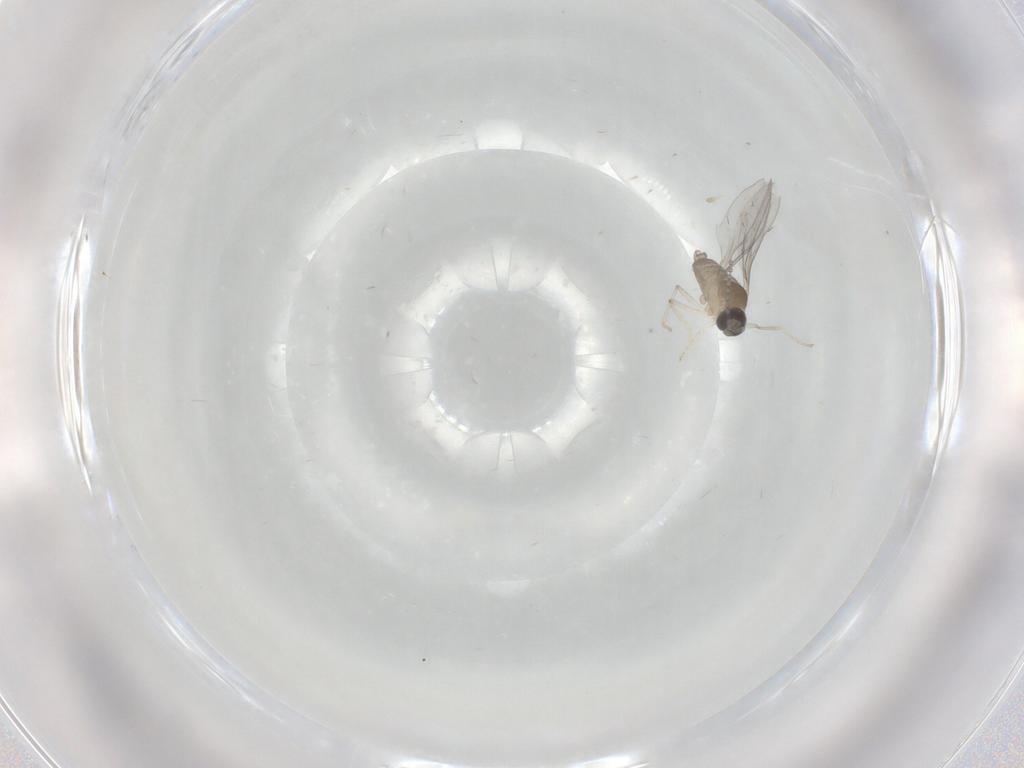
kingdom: Animalia
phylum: Arthropoda
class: Insecta
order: Diptera
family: Cecidomyiidae
